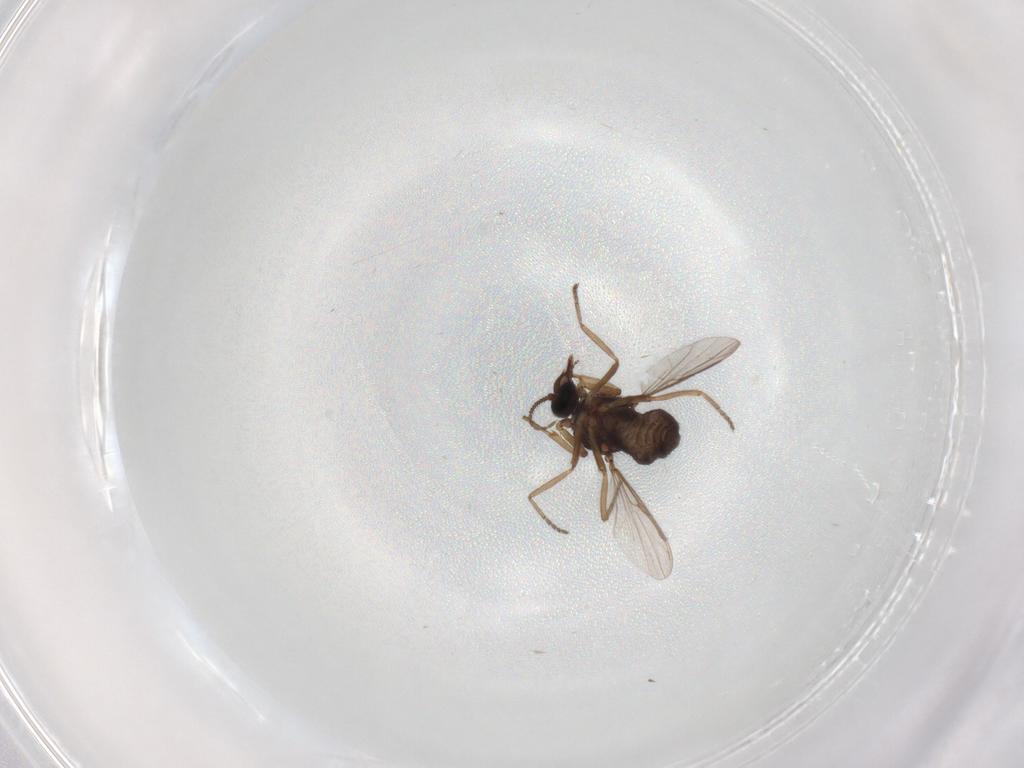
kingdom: Animalia
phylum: Arthropoda
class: Insecta
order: Diptera
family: Ceratopogonidae
